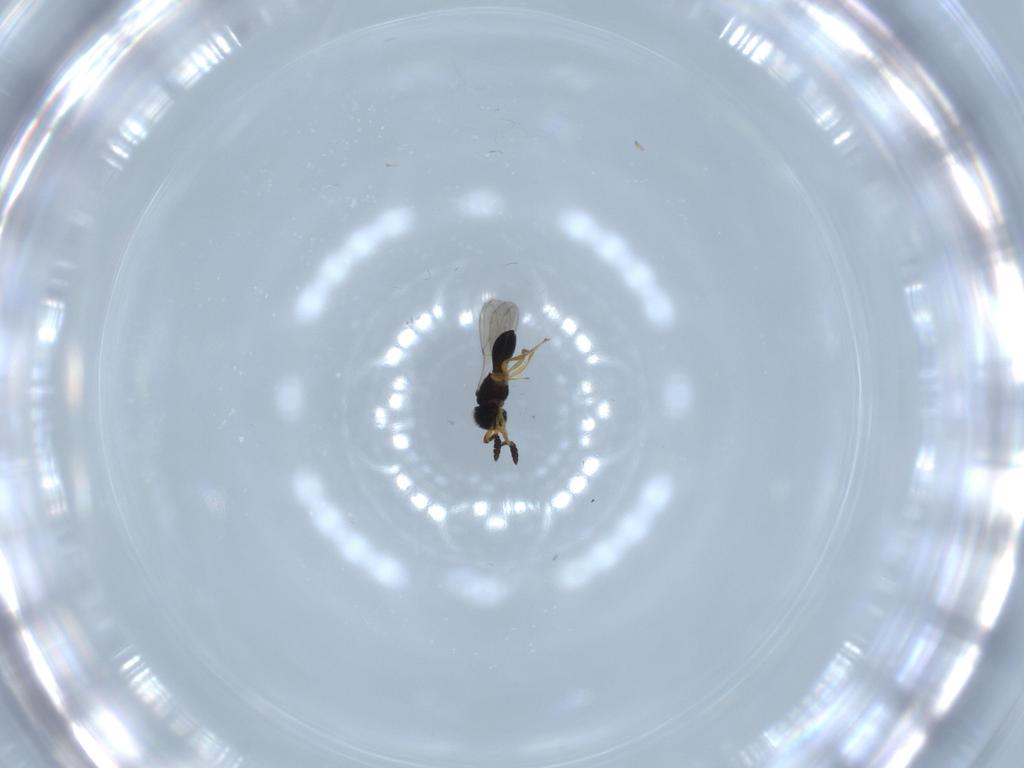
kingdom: Animalia
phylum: Arthropoda
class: Insecta
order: Hymenoptera
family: Scelionidae
